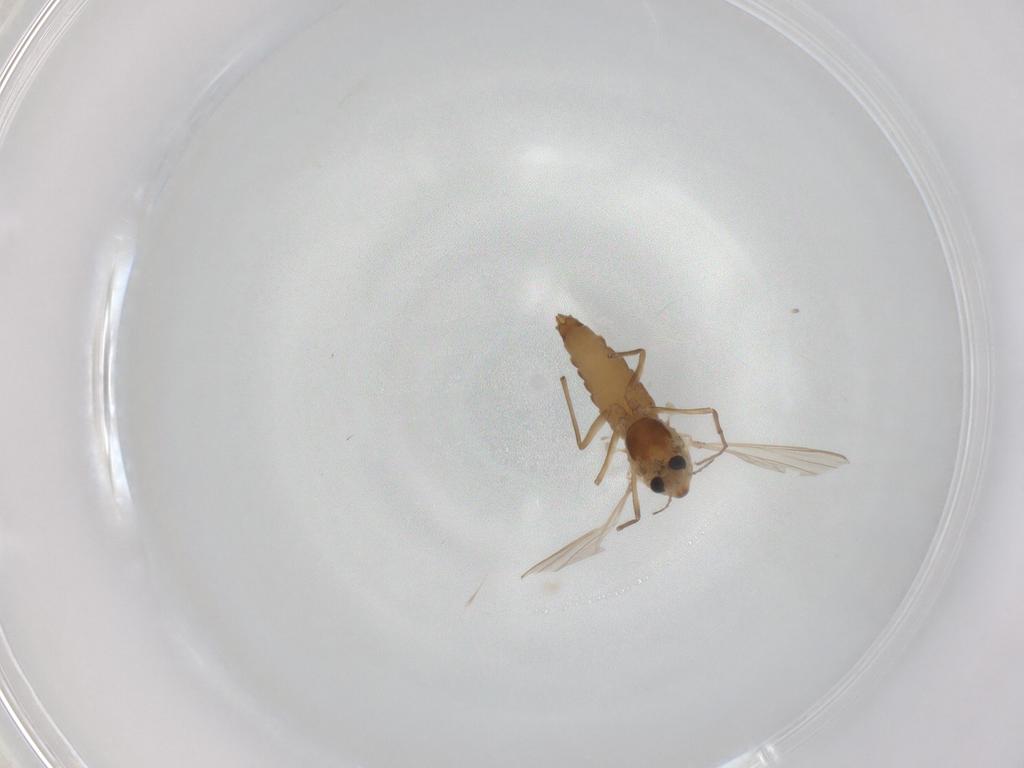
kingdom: Animalia
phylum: Arthropoda
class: Insecta
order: Diptera
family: Chironomidae
